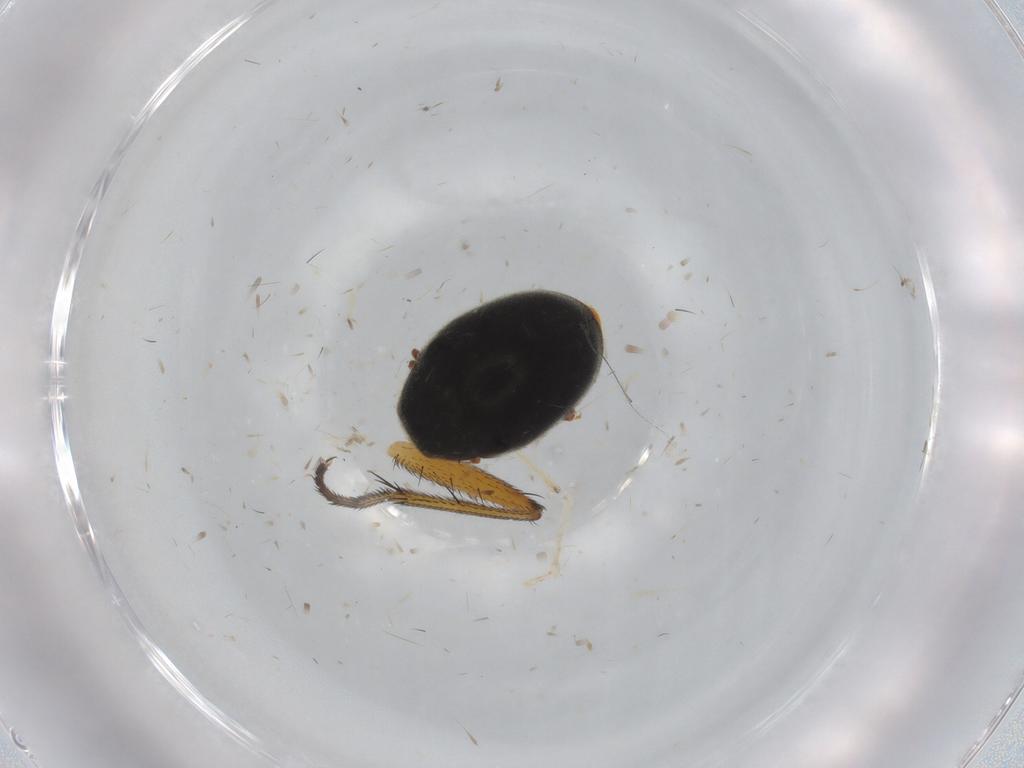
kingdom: Animalia
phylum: Arthropoda
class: Insecta
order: Coleoptera
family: Coccinellidae
